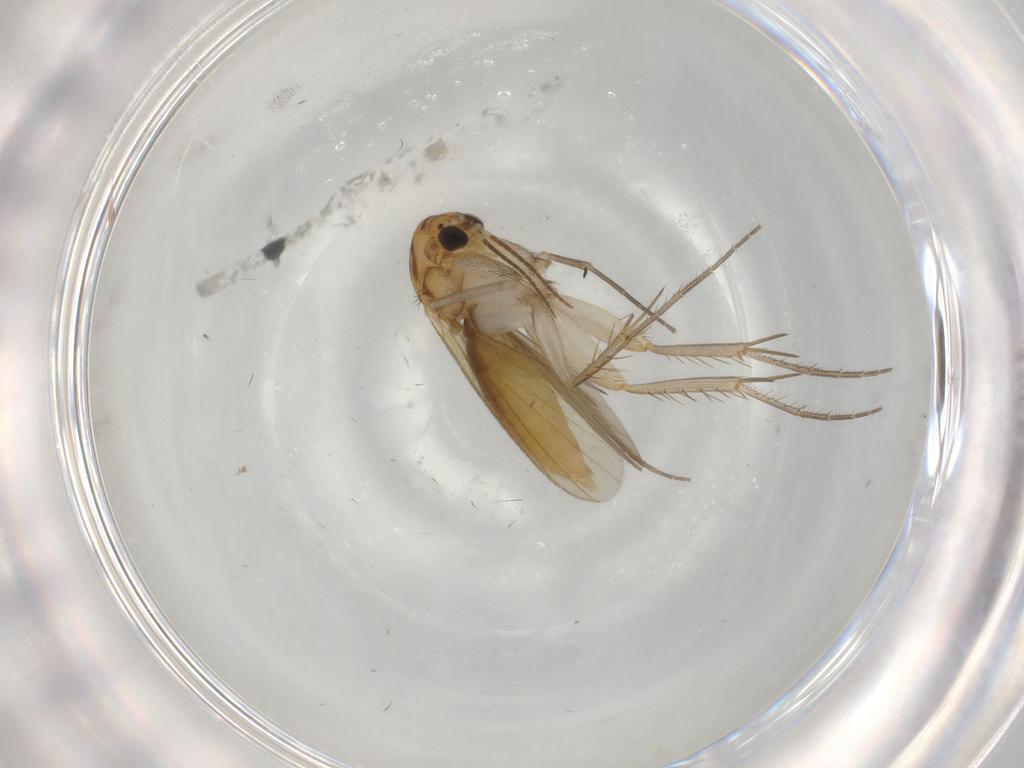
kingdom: Animalia
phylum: Arthropoda
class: Insecta
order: Diptera
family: Mycetophilidae
